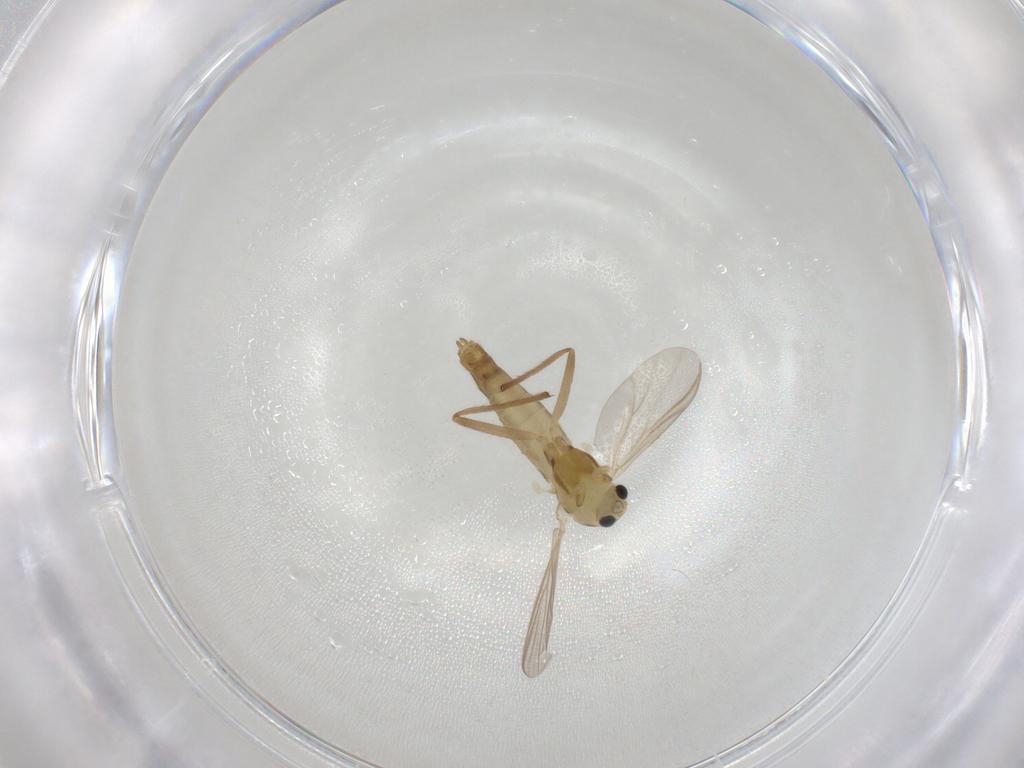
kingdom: Animalia
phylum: Arthropoda
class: Insecta
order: Diptera
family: Chironomidae
